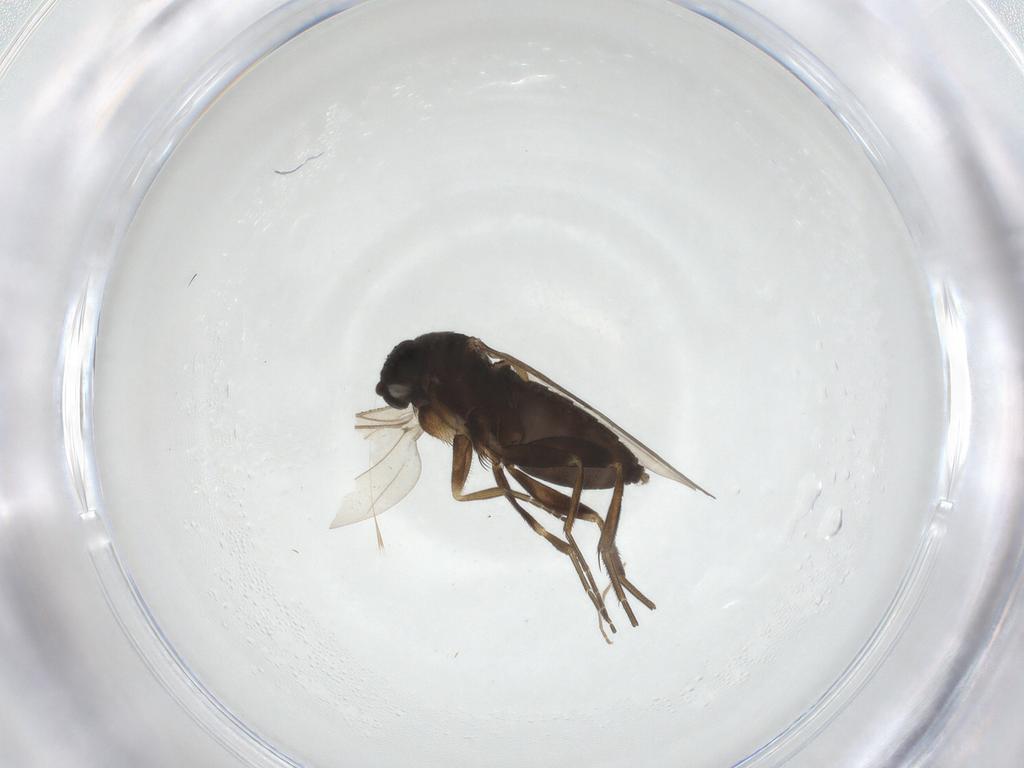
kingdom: Animalia
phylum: Arthropoda
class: Insecta
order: Diptera
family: Phoridae
